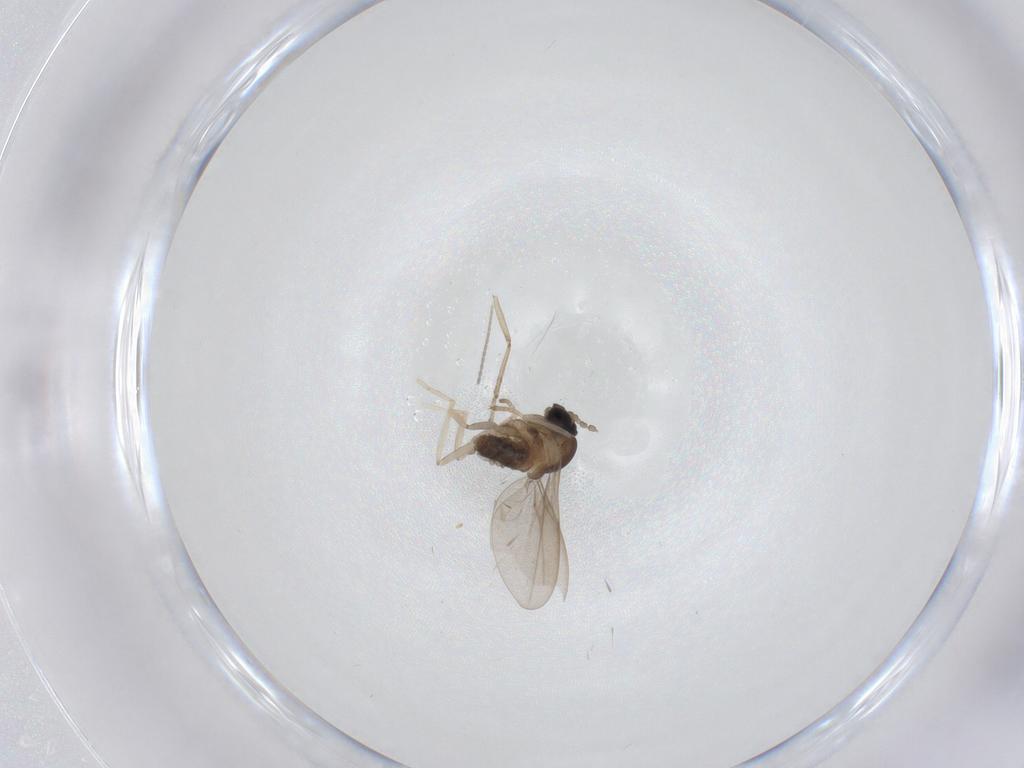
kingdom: Animalia
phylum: Arthropoda
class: Insecta
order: Diptera
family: Cecidomyiidae
